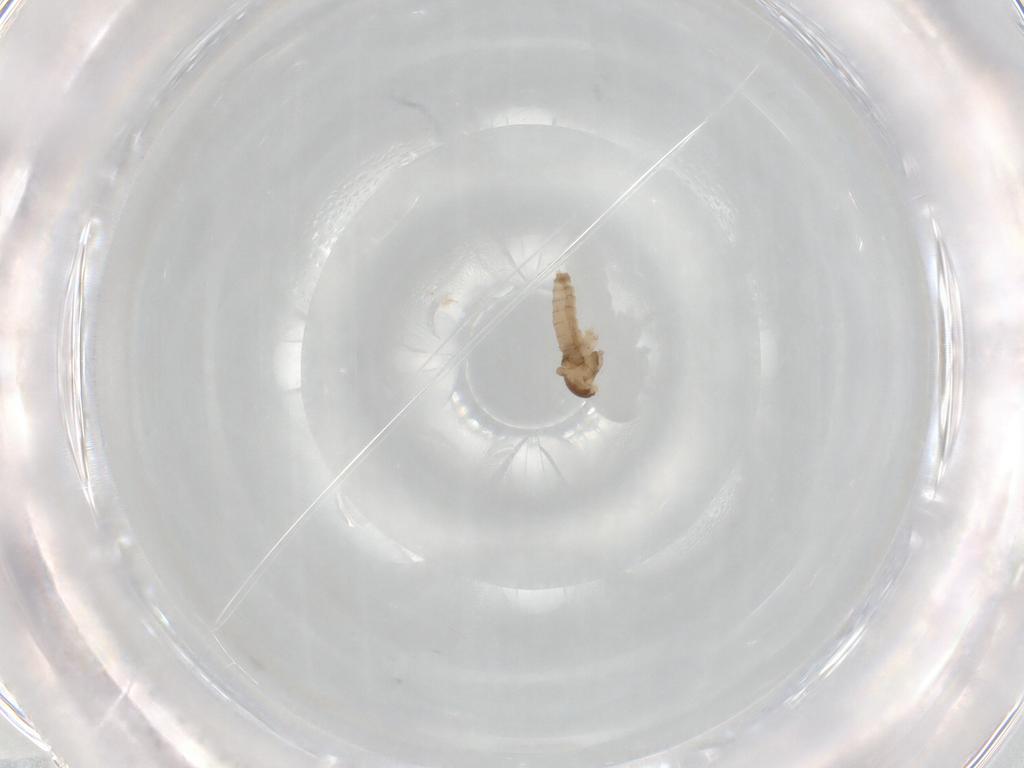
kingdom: Animalia
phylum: Arthropoda
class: Insecta
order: Diptera
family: Cecidomyiidae
